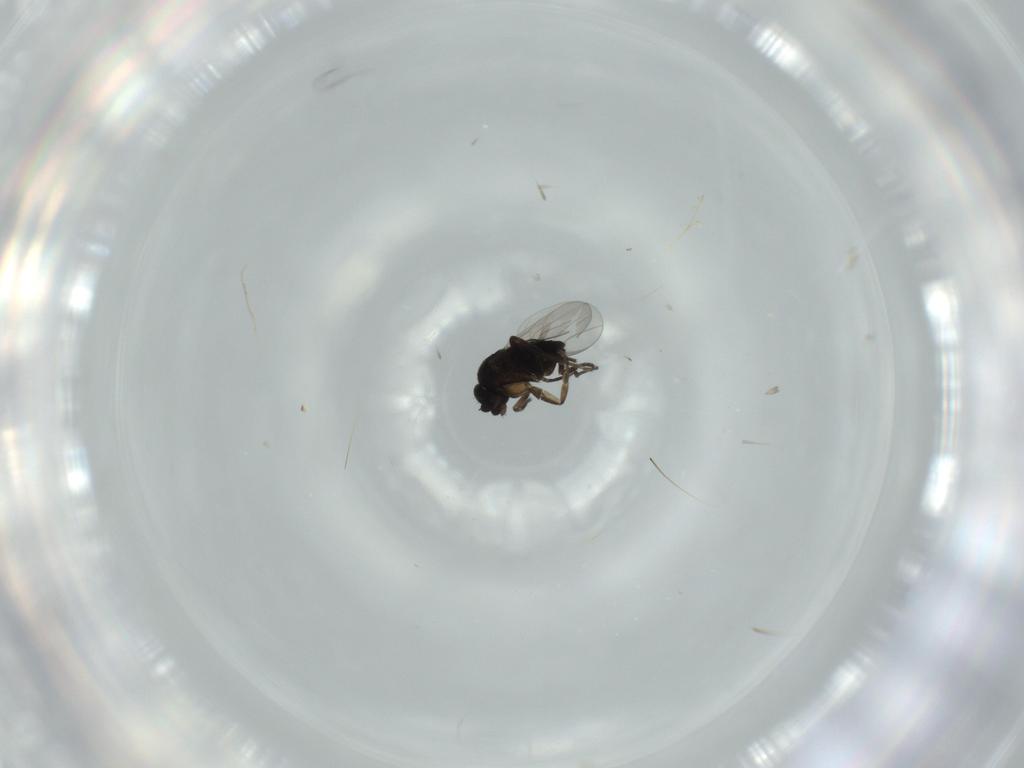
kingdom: Animalia
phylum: Arthropoda
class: Insecta
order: Diptera
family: Phoridae
